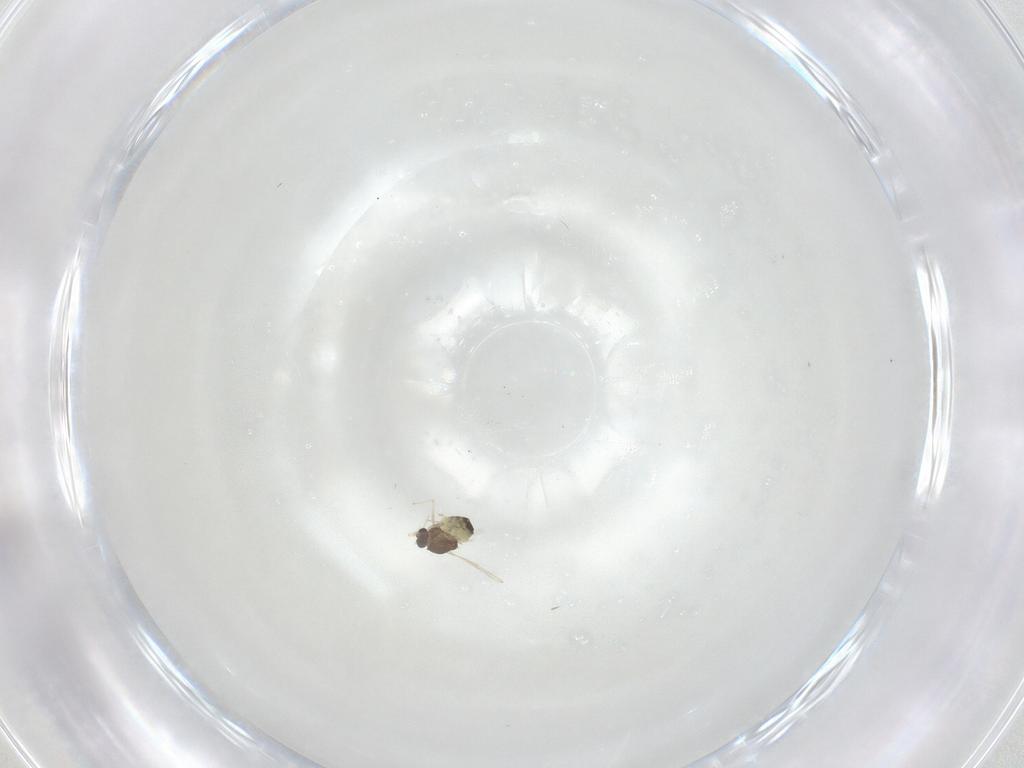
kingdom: Animalia
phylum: Arthropoda
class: Insecta
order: Diptera
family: Chironomidae
